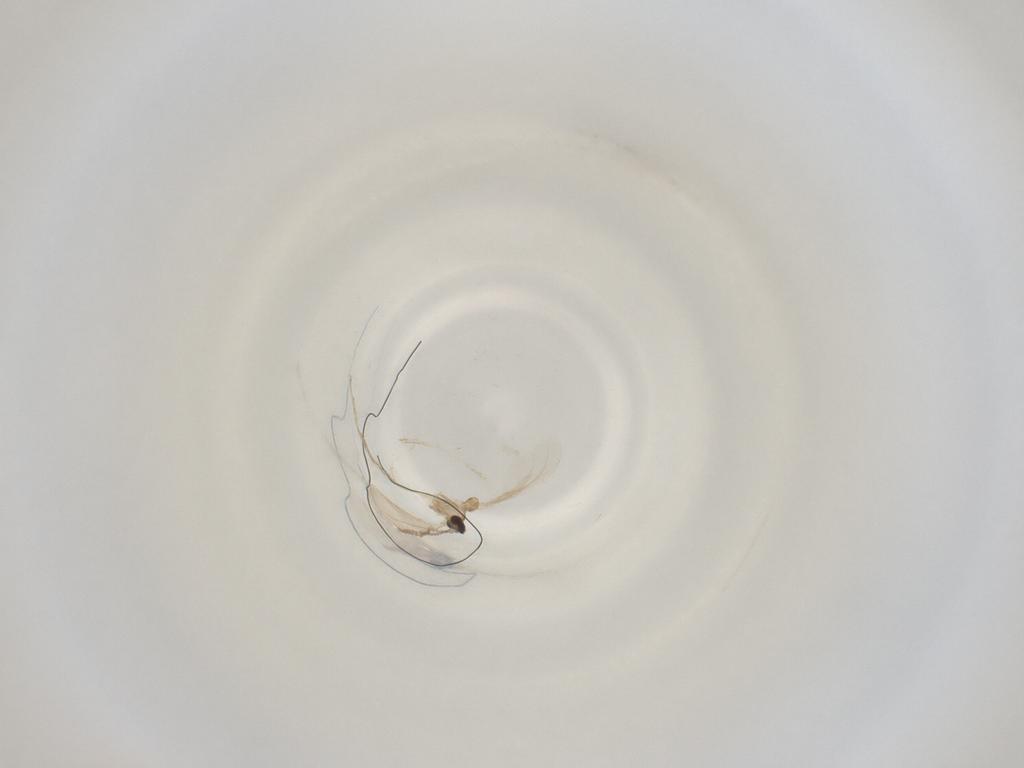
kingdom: Animalia
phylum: Arthropoda
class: Insecta
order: Diptera
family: Cecidomyiidae
